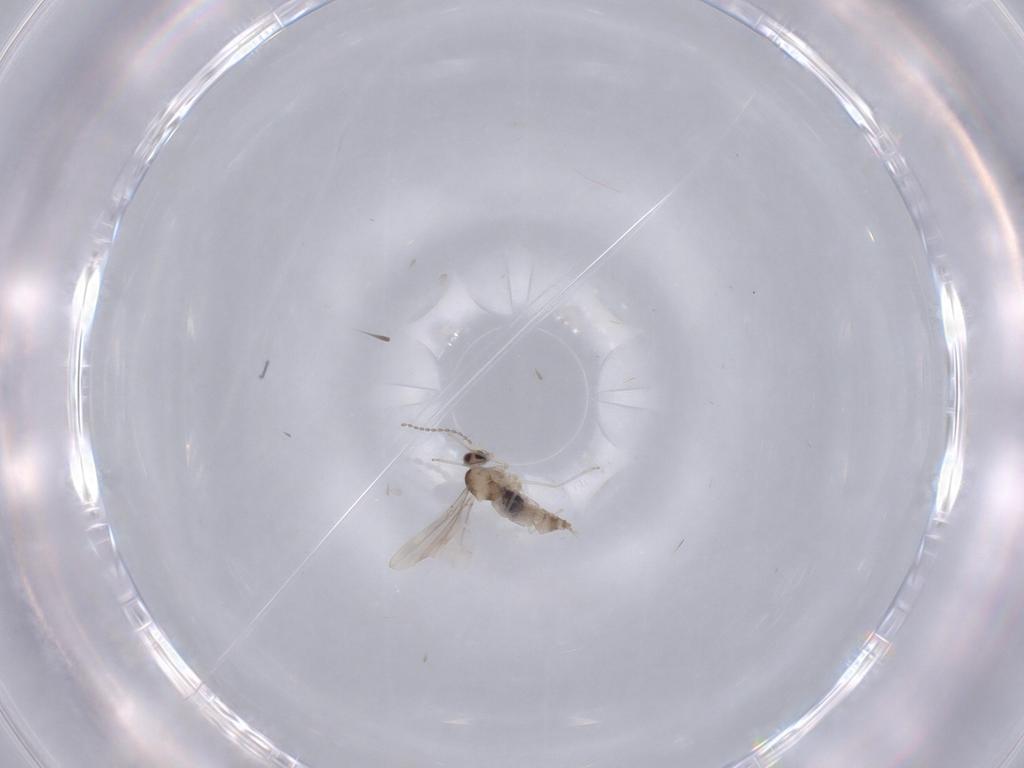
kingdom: Animalia
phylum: Arthropoda
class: Insecta
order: Diptera
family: Cecidomyiidae
